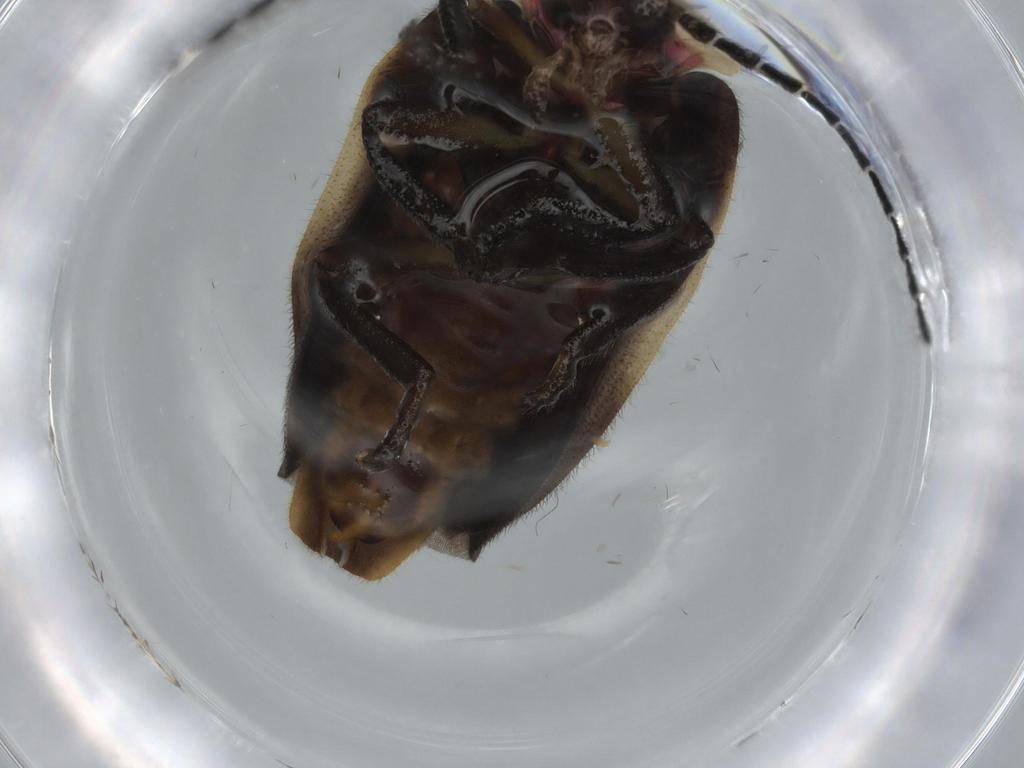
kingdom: Animalia
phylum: Arthropoda
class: Insecta
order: Coleoptera
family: Lampyridae
